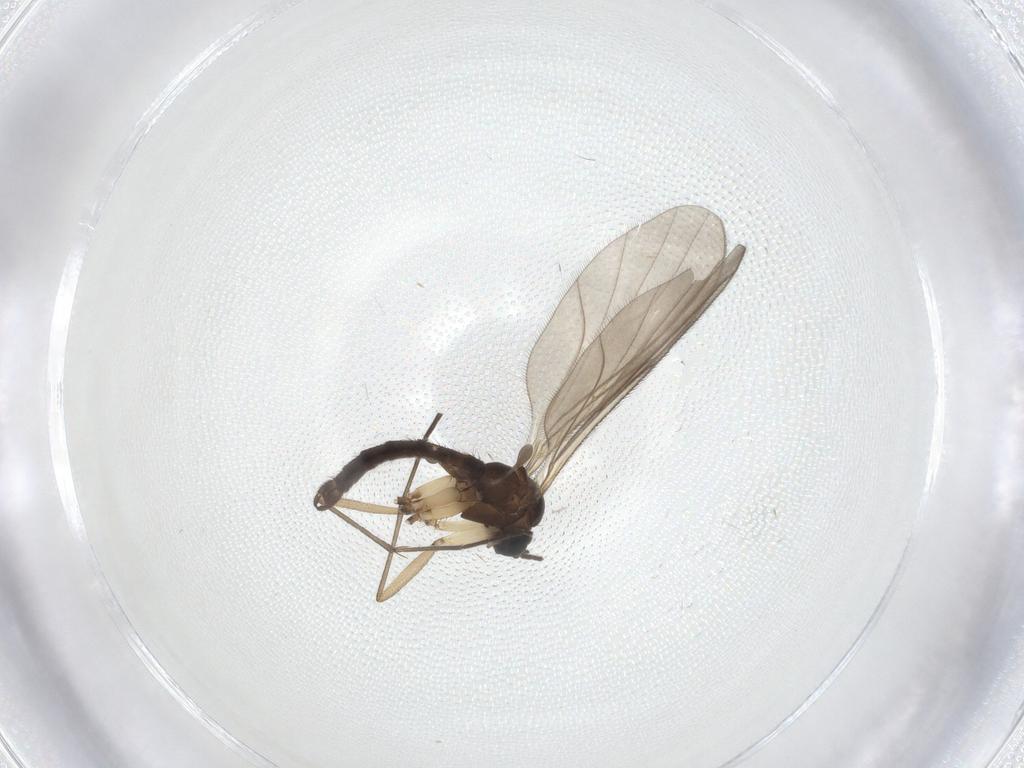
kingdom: Animalia
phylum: Arthropoda
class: Insecta
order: Diptera
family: Sciaridae
